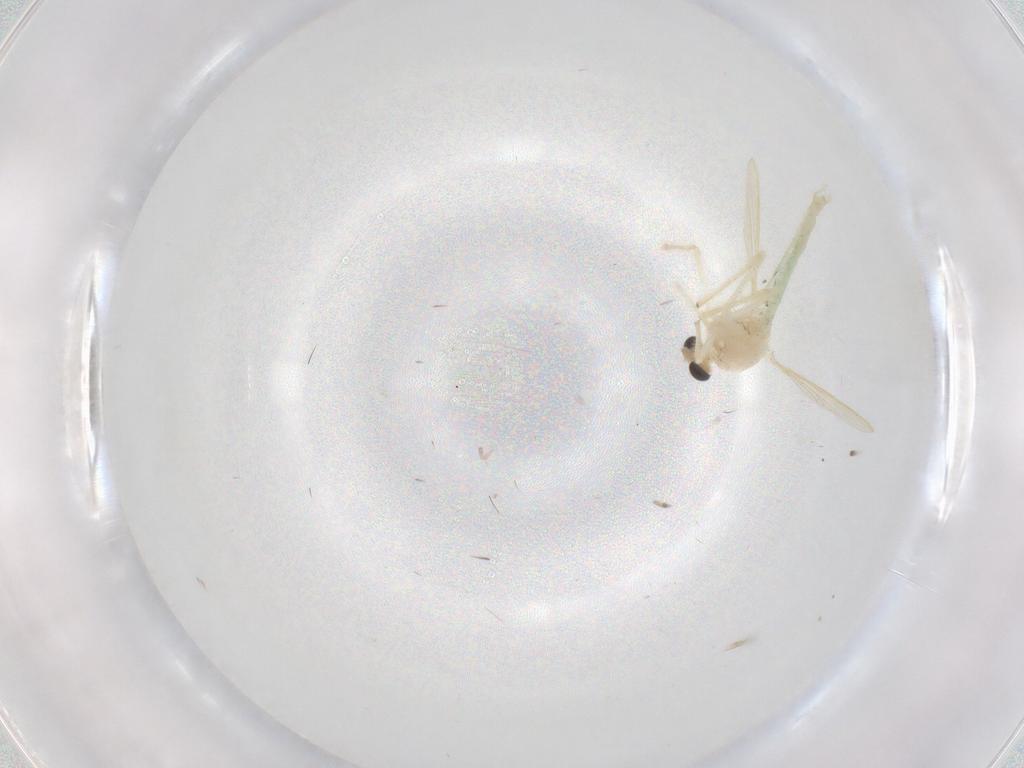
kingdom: Animalia
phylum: Arthropoda
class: Insecta
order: Diptera
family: Chironomidae
